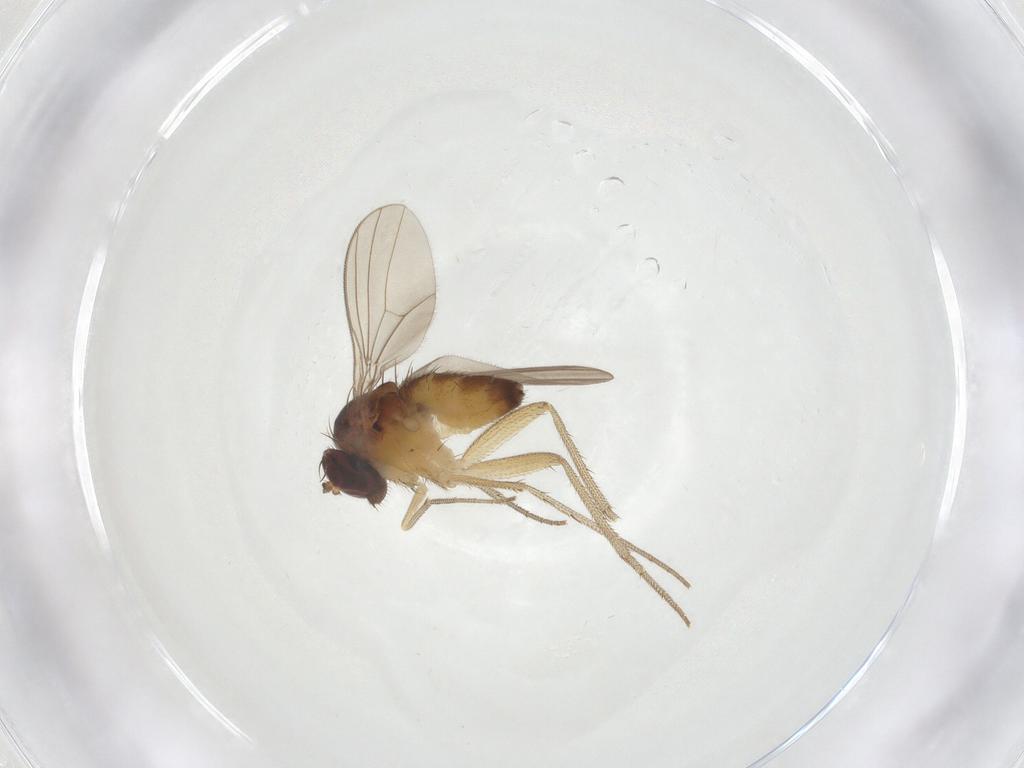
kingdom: Animalia
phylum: Arthropoda
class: Insecta
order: Diptera
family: Dolichopodidae
